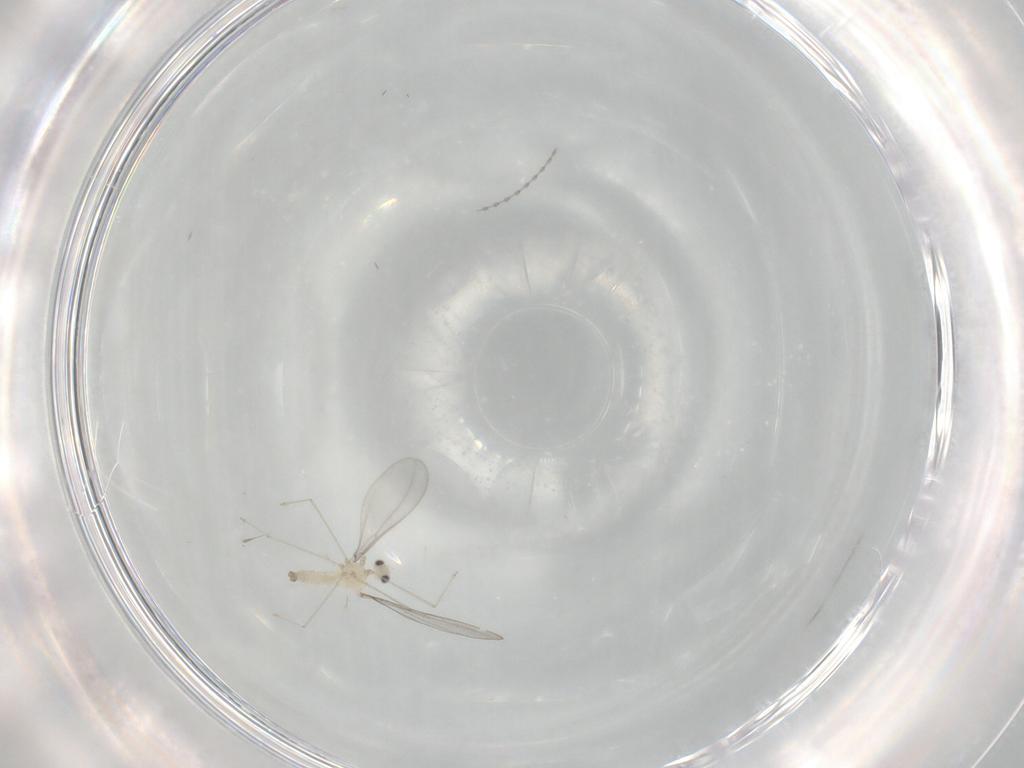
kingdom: Animalia
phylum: Arthropoda
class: Insecta
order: Diptera
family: Cecidomyiidae
